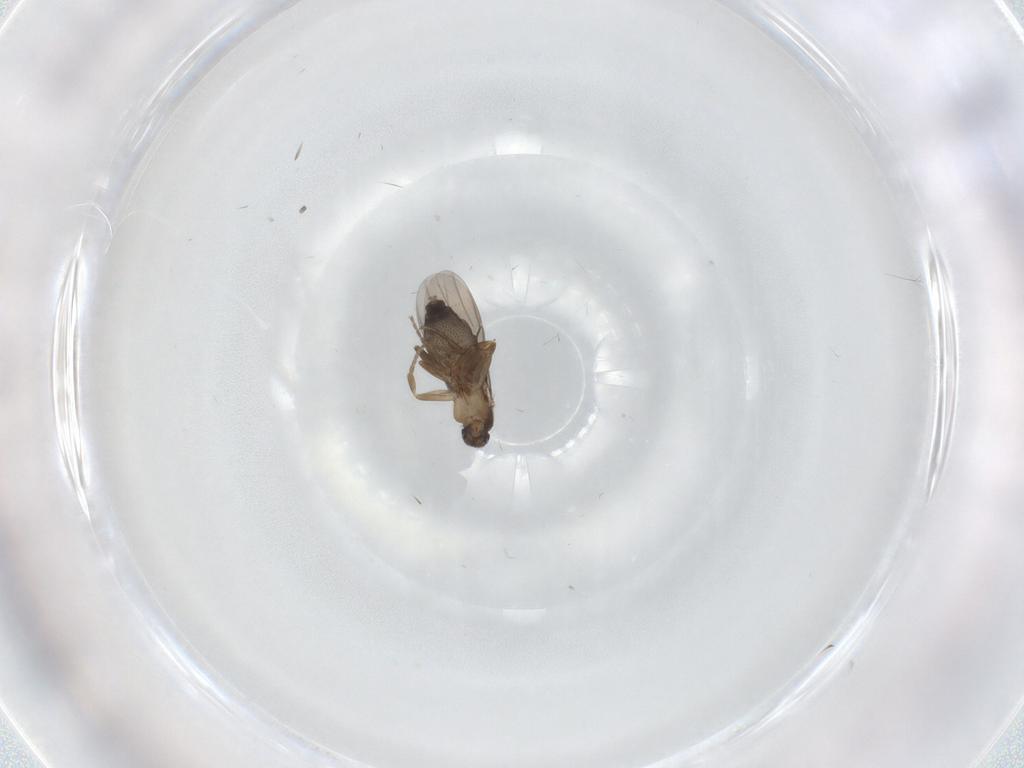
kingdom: Animalia
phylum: Arthropoda
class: Insecta
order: Diptera
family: Phoridae
